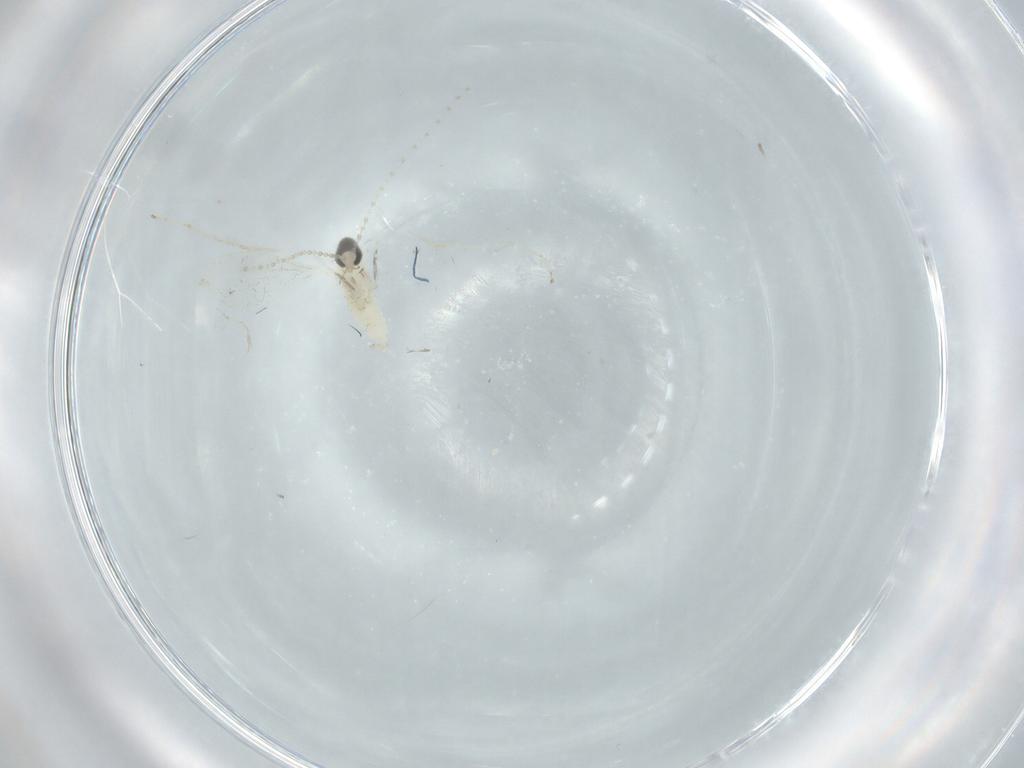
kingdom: Animalia
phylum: Arthropoda
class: Insecta
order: Diptera
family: Cecidomyiidae
